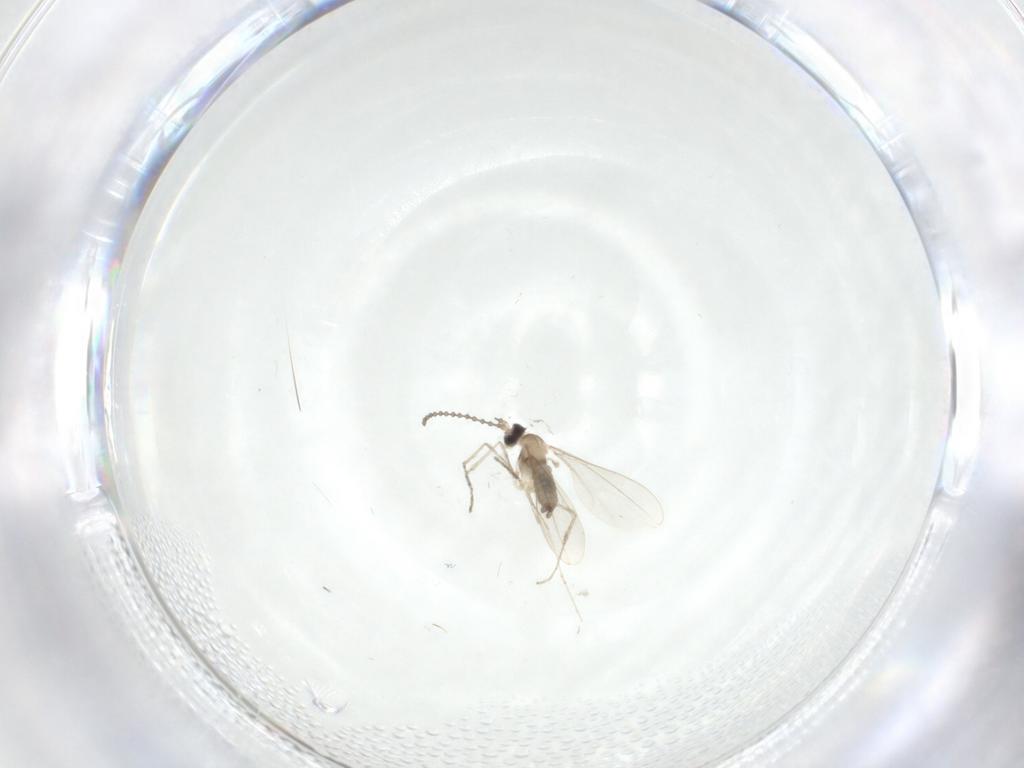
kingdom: Animalia
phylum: Arthropoda
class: Insecta
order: Diptera
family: Cecidomyiidae
